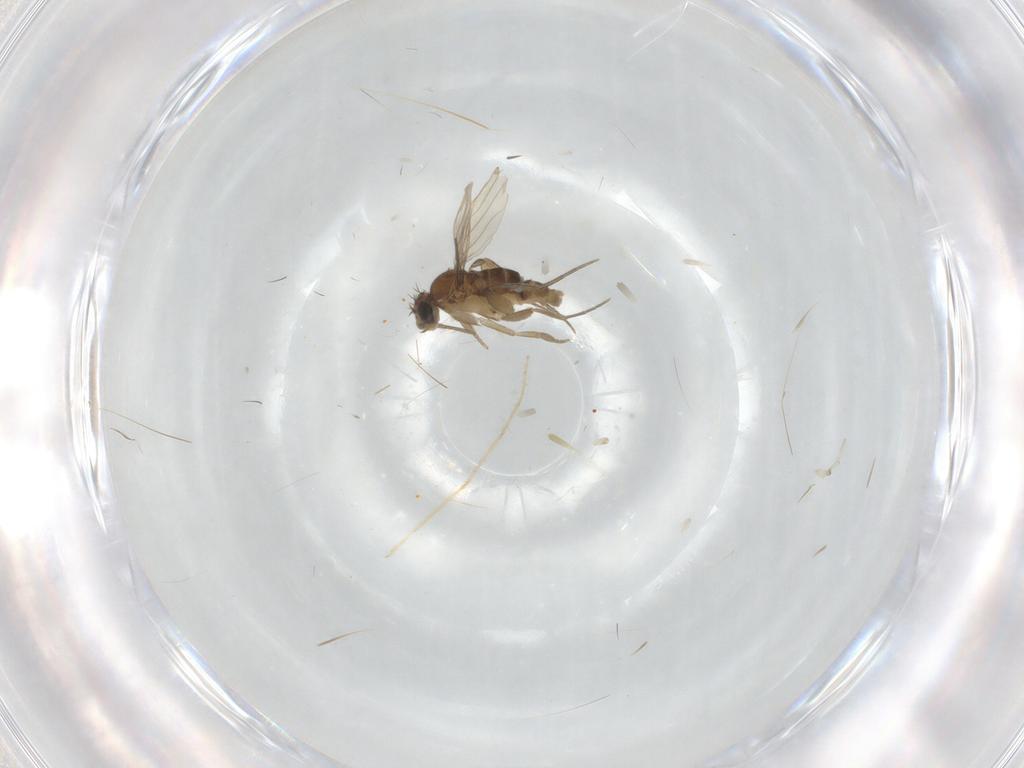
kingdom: Animalia
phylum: Arthropoda
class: Insecta
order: Diptera
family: Phoridae
